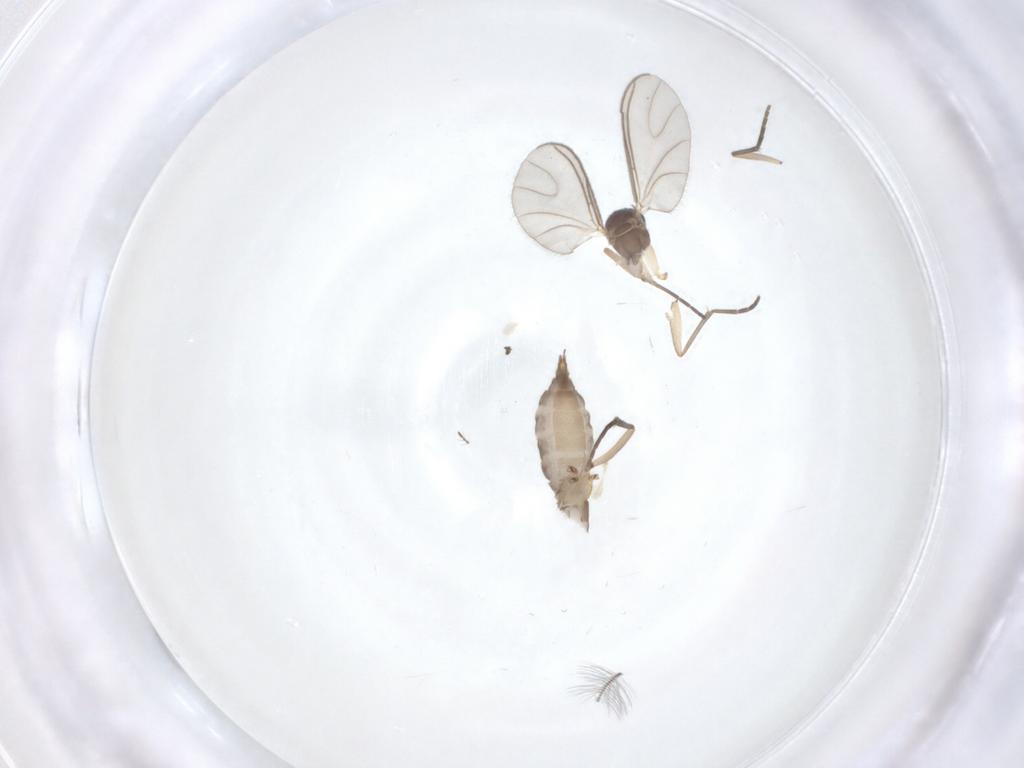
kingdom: Animalia
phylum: Arthropoda
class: Insecta
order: Diptera
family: Sciaridae
